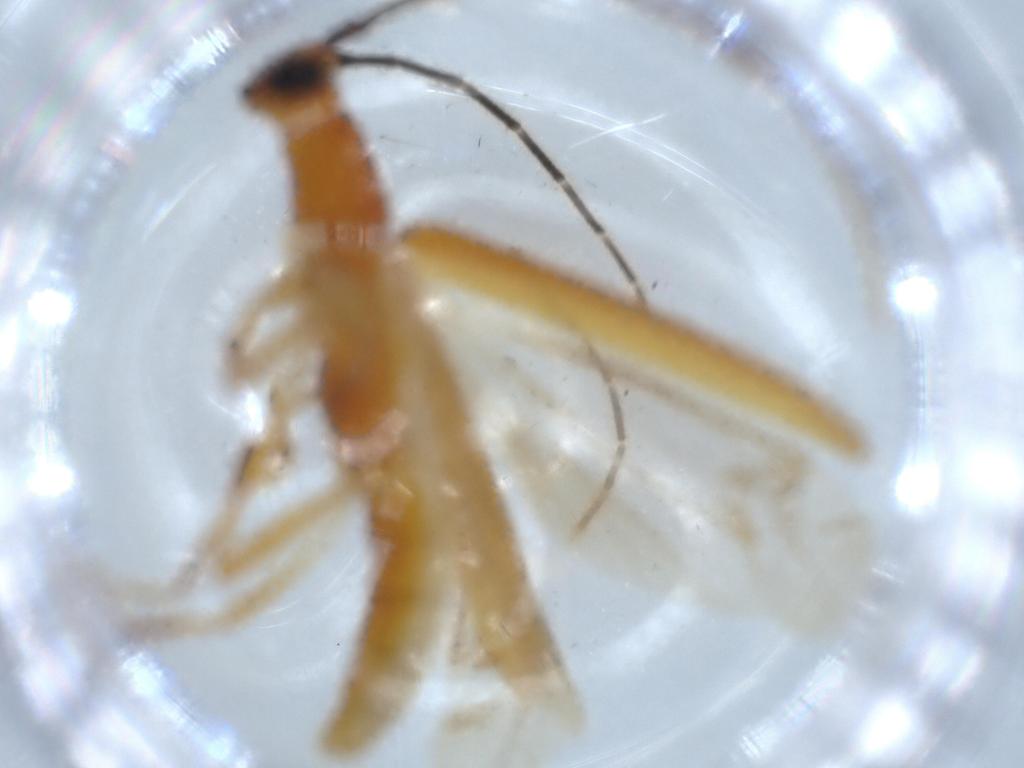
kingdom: Animalia
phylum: Arthropoda
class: Insecta
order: Coleoptera
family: Cerambycidae
